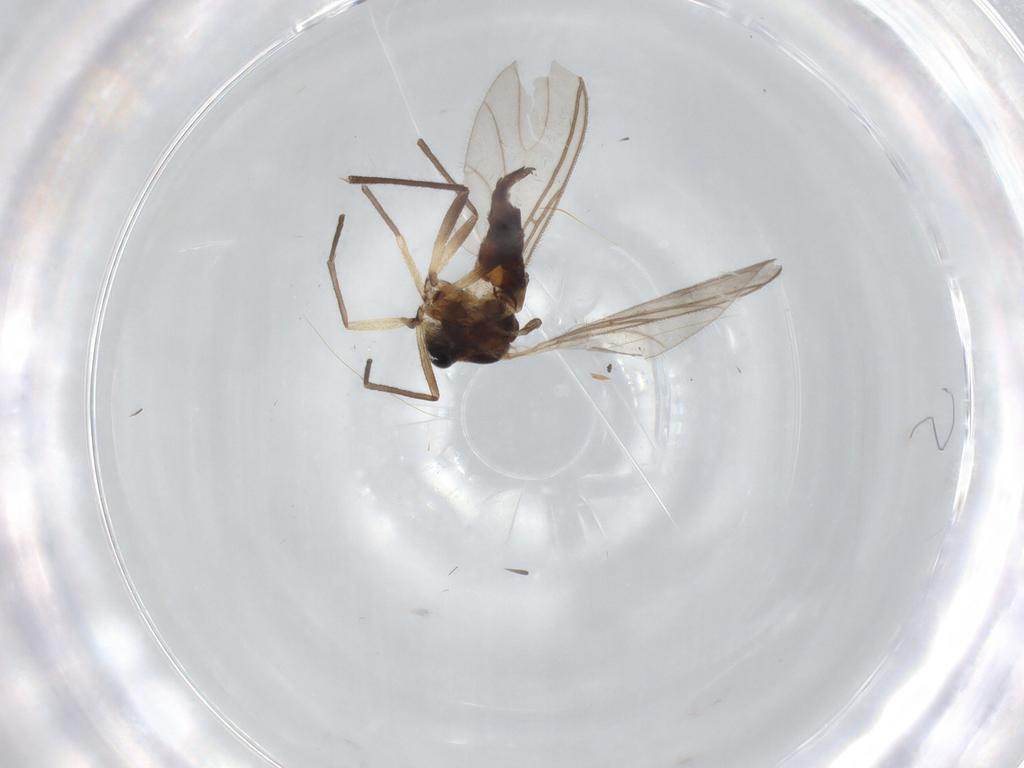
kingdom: Animalia
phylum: Arthropoda
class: Insecta
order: Diptera
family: Sciaridae
